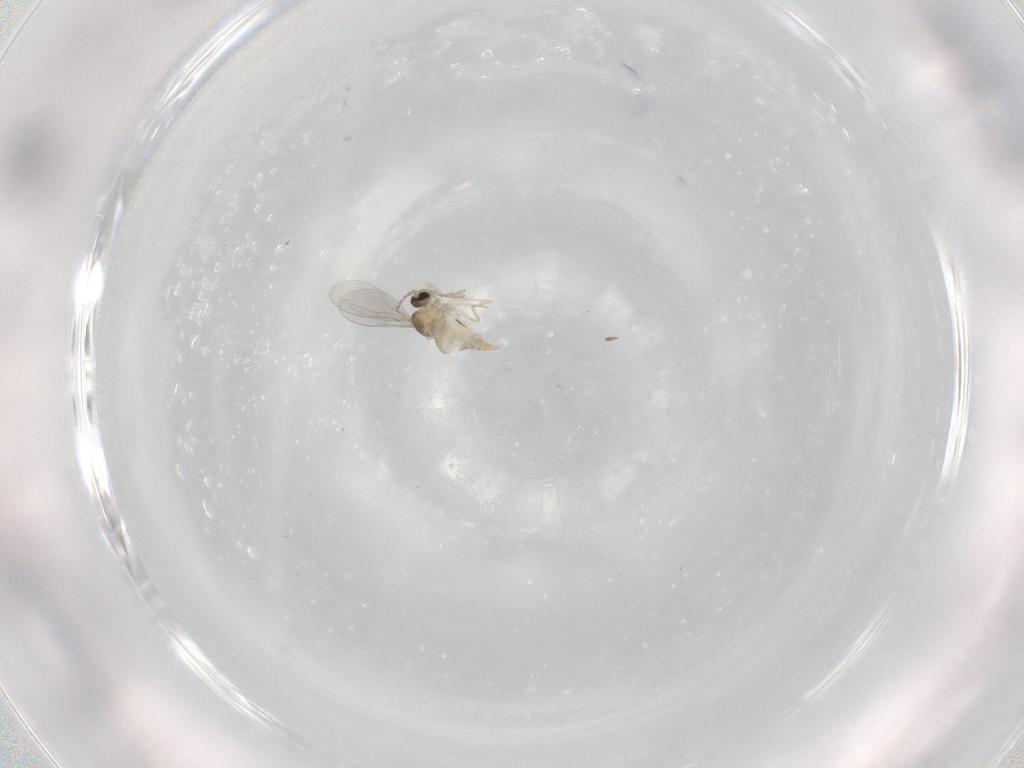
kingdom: Animalia
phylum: Arthropoda
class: Insecta
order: Diptera
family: Cecidomyiidae
